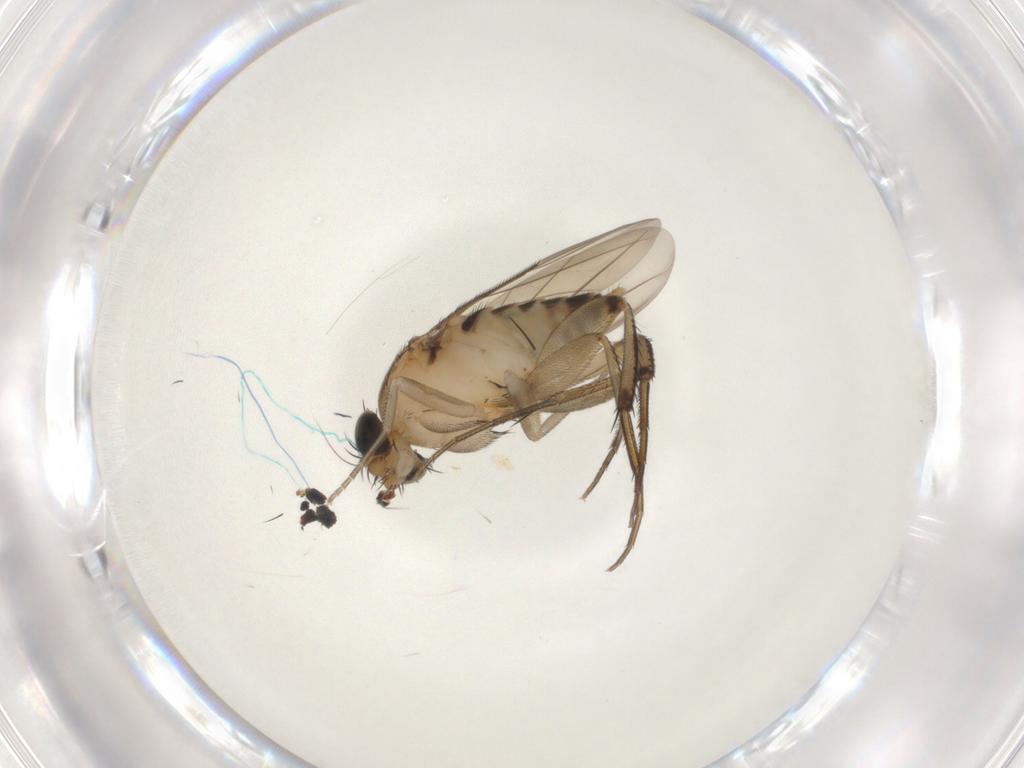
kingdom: Animalia
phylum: Arthropoda
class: Insecta
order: Diptera
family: Phoridae
